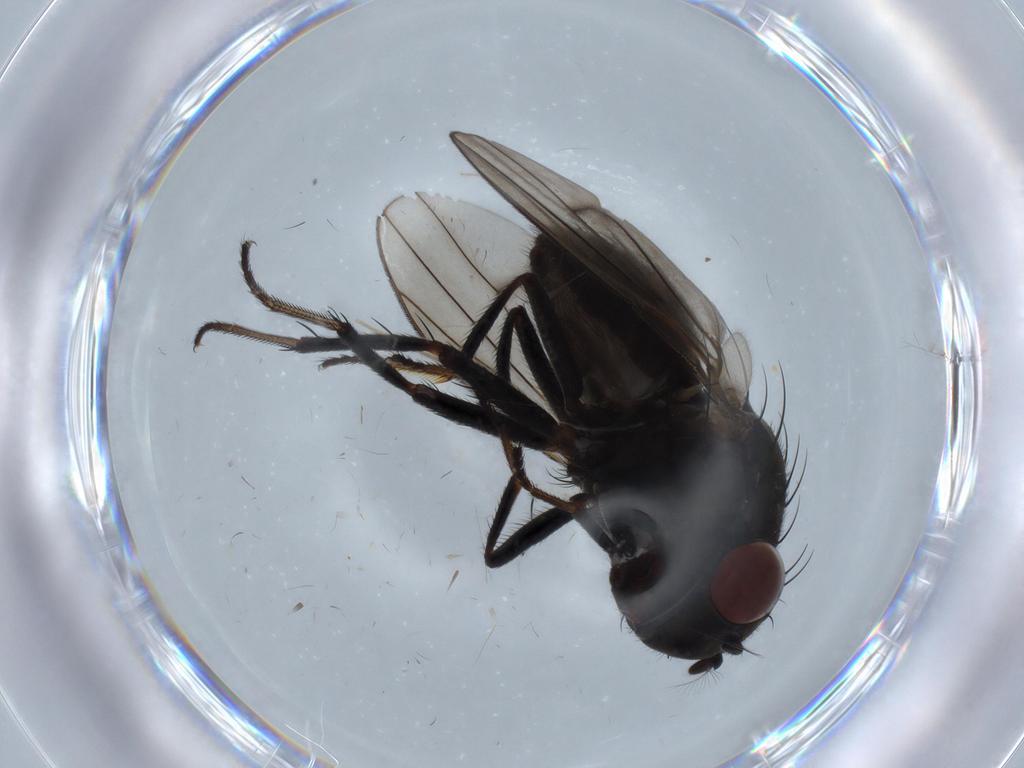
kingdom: Animalia
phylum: Arthropoda
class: Insecta
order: Diptera
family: Ephydridae
